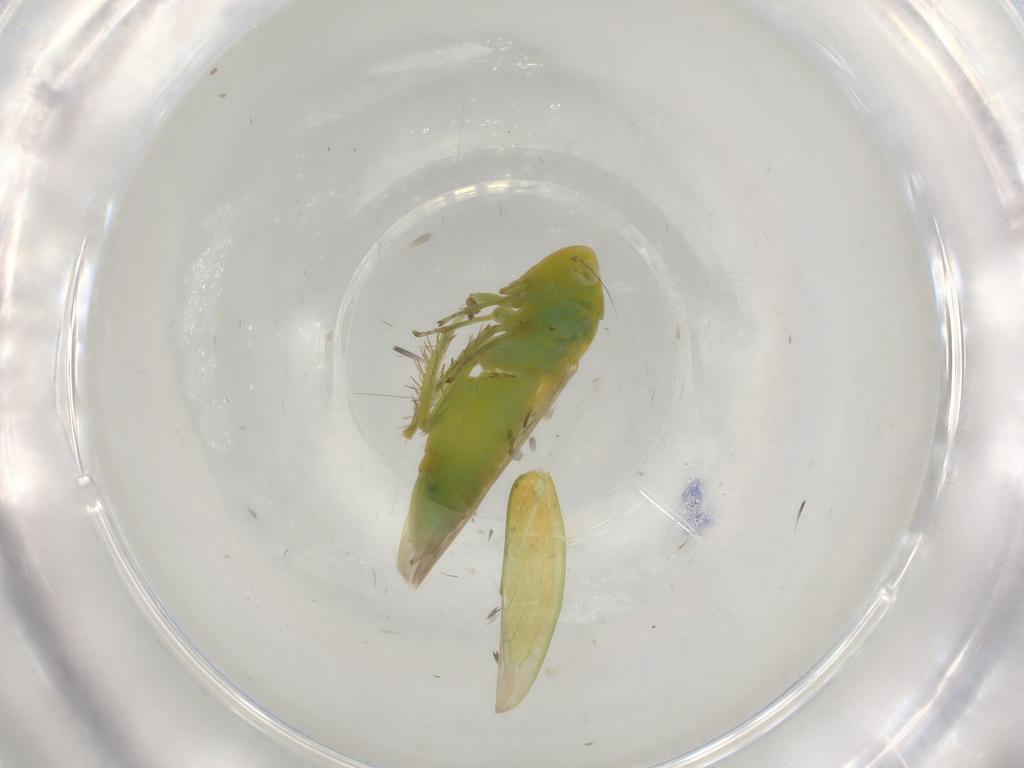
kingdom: Animalia
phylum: Arthropoda
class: Insecta
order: Hemiptera
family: Cicadellidae
